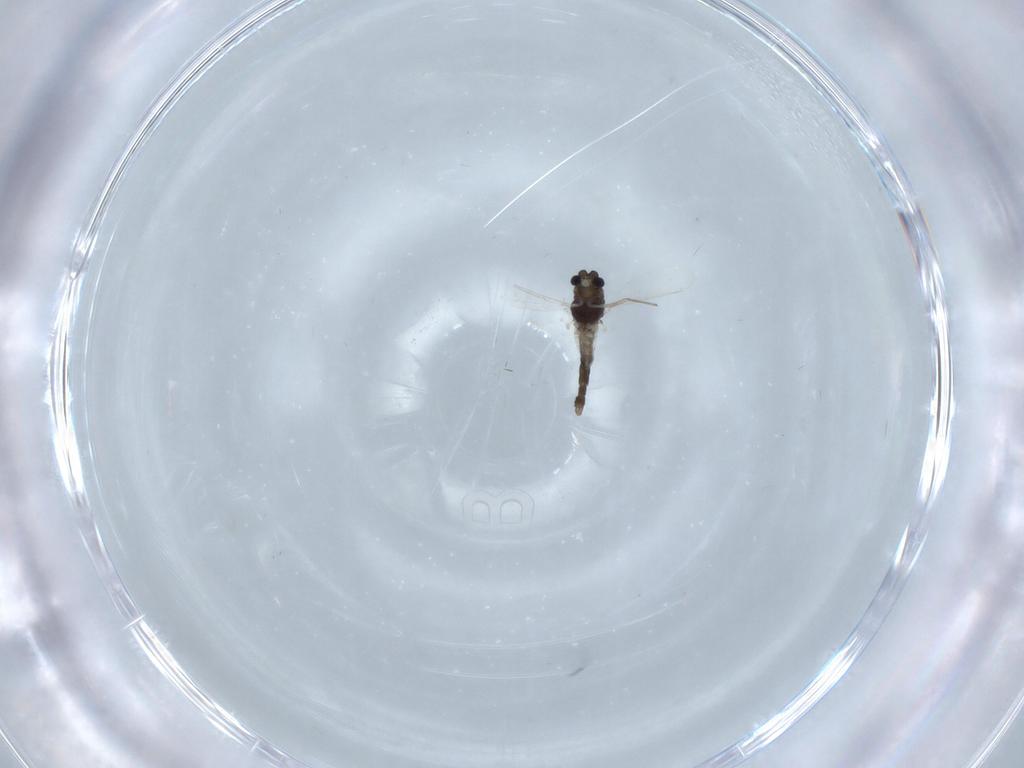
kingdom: Animalia
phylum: Arthropoda
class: Insecta
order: Diptera
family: Chironomidae
